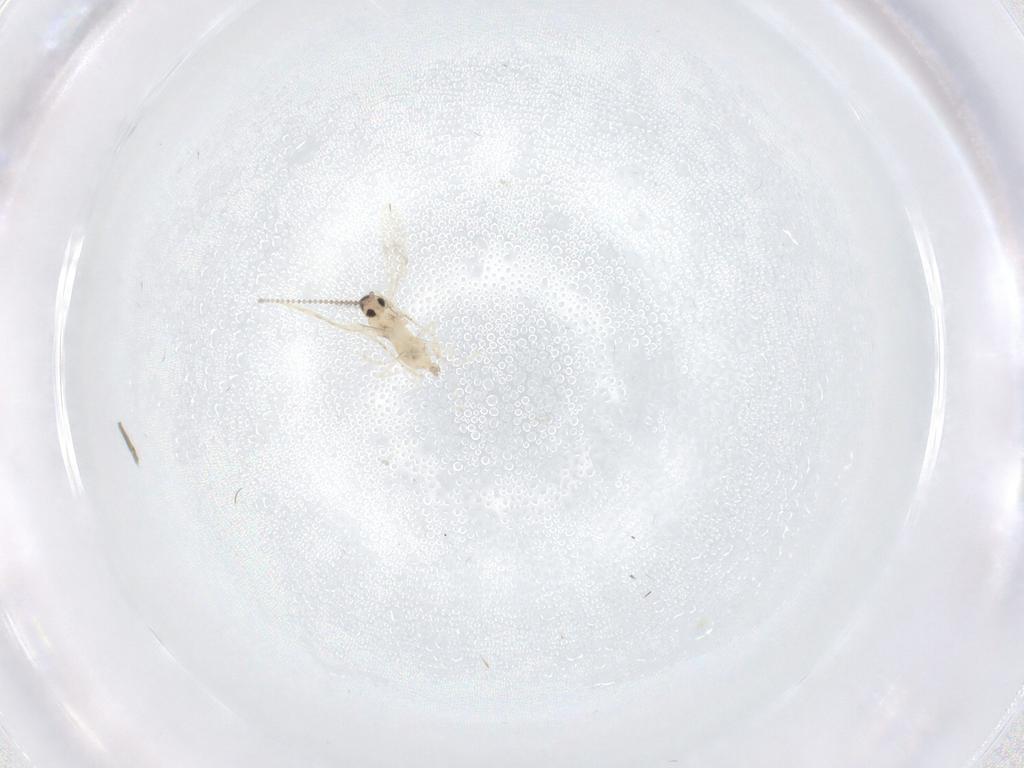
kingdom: Animalia
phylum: Arthropoda
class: Insecta
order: Diptera
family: Cecidomyiidae
